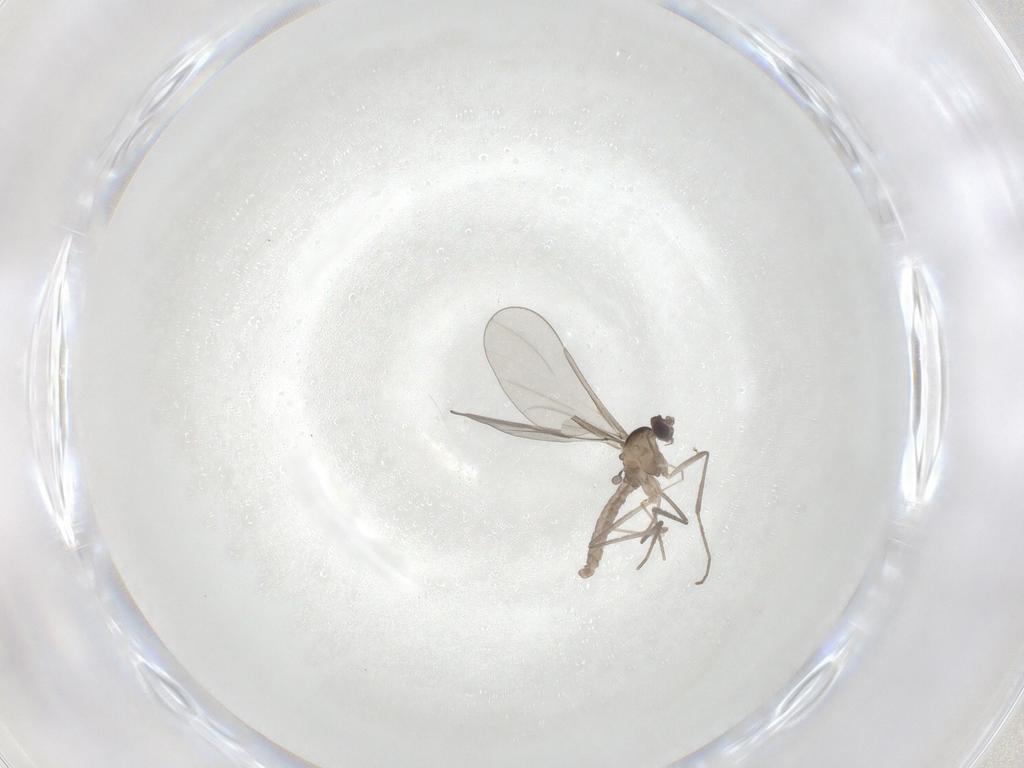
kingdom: Animalia
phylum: Arthropoda
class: Insecta
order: Diptera
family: Cecidomyiidae
